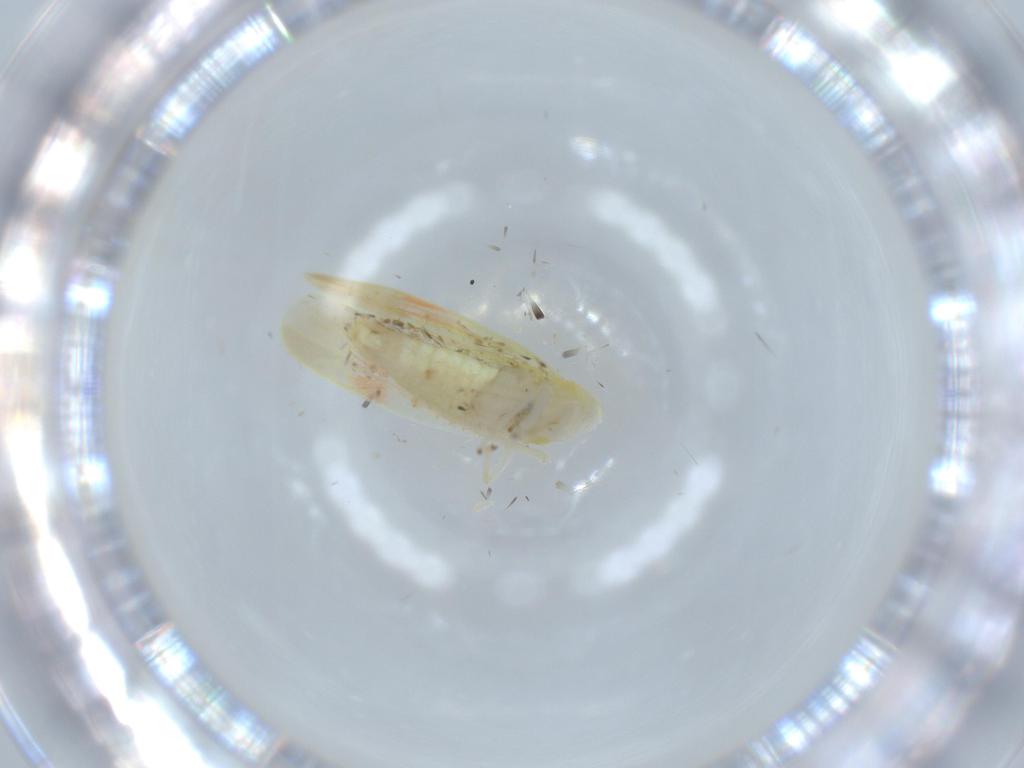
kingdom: Animalia
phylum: Arthropoda
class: Insecta
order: Hemiptera
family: Cicadellidae
